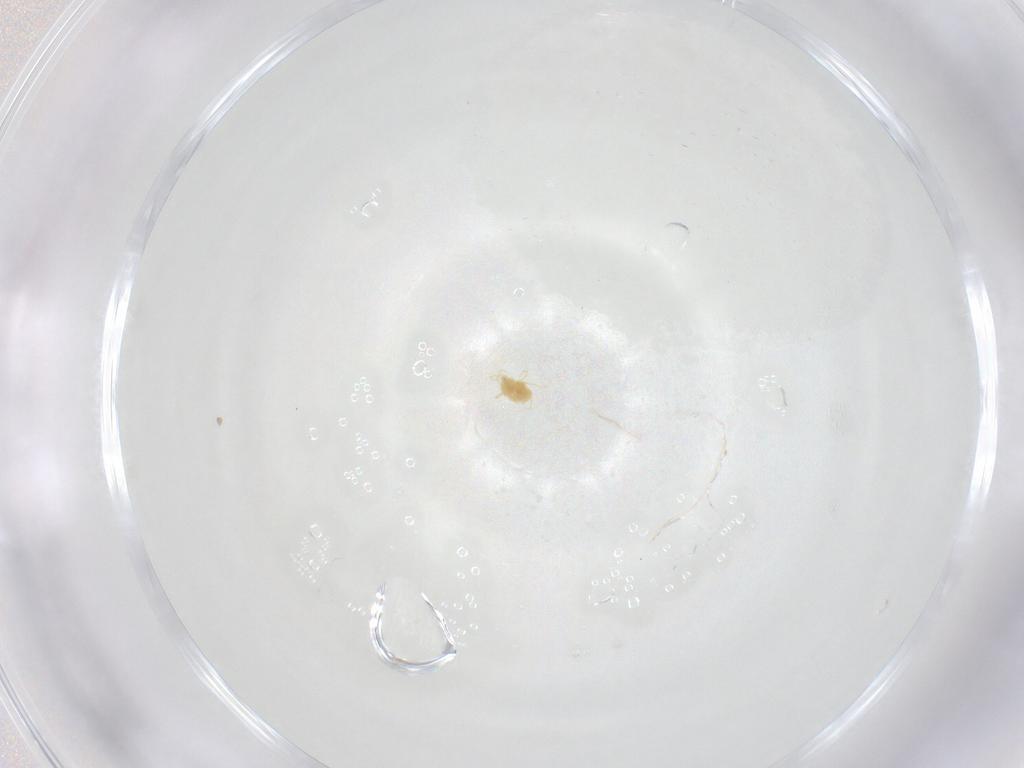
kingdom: Animalia
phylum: Arthropoda
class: Arachnida
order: Trombidiformes
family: Tetranychidae
